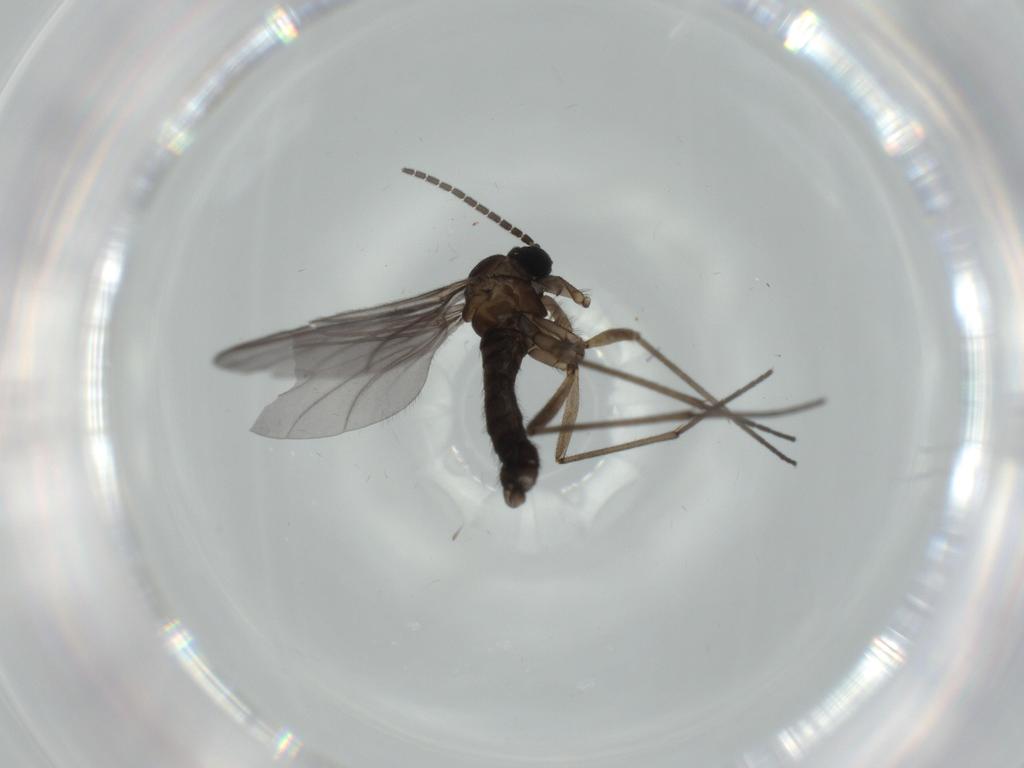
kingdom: Animalia
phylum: Arthropoda
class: Insecta
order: Diptera
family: Sciaridae
